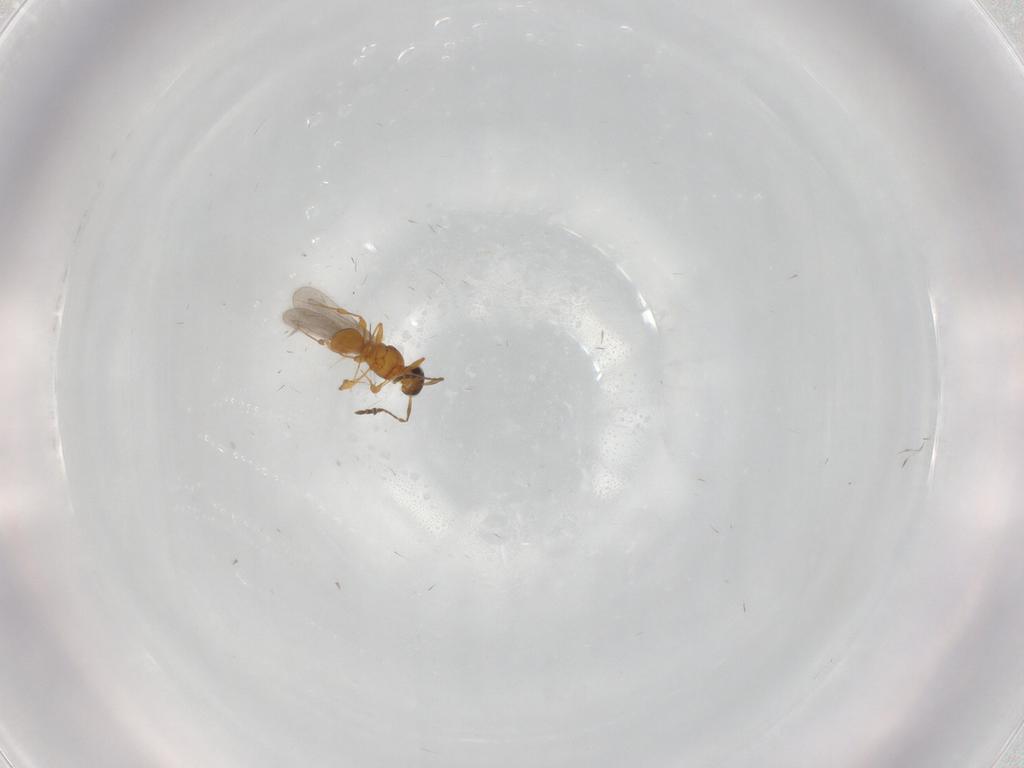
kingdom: Animalia
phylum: Arthropoda
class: Insecta
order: Hymenoptera
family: Platygastridae
